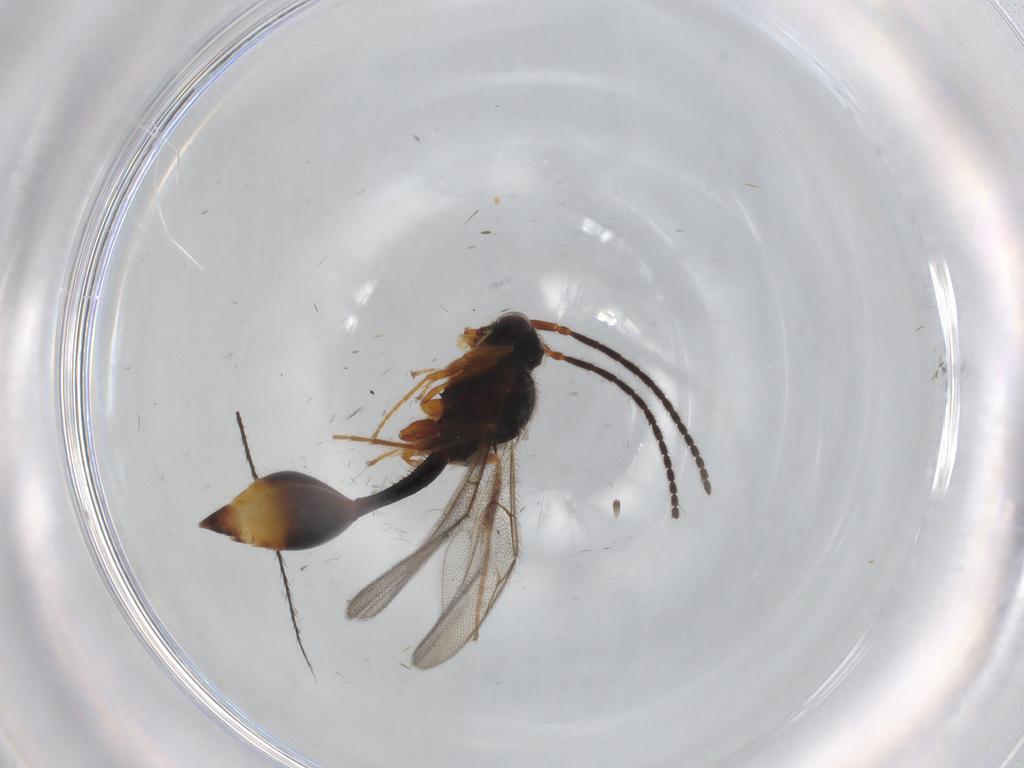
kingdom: Animalia
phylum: Arthropoda
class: Insecta
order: Hymenoptera
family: Diapriidae
